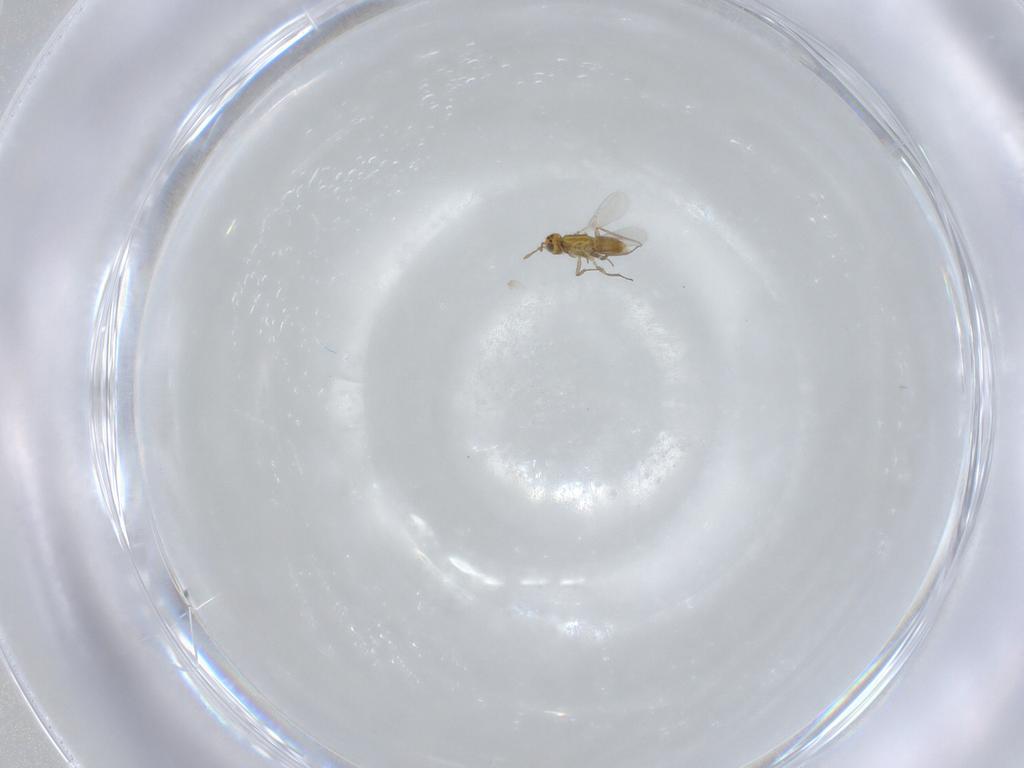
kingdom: Animalia
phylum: Arthropoda
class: Insecta
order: Hymenoptera
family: Aphelinidae
